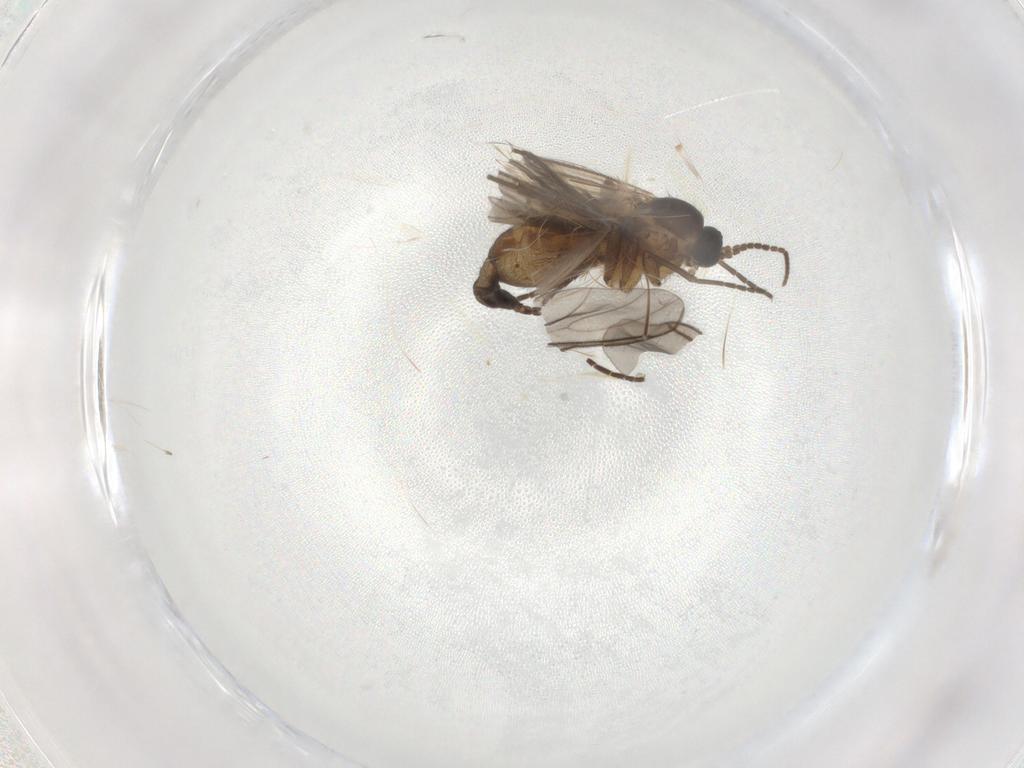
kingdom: Animalia
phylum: Arthropoda
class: Insecta
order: Diptera
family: Sciaridae
